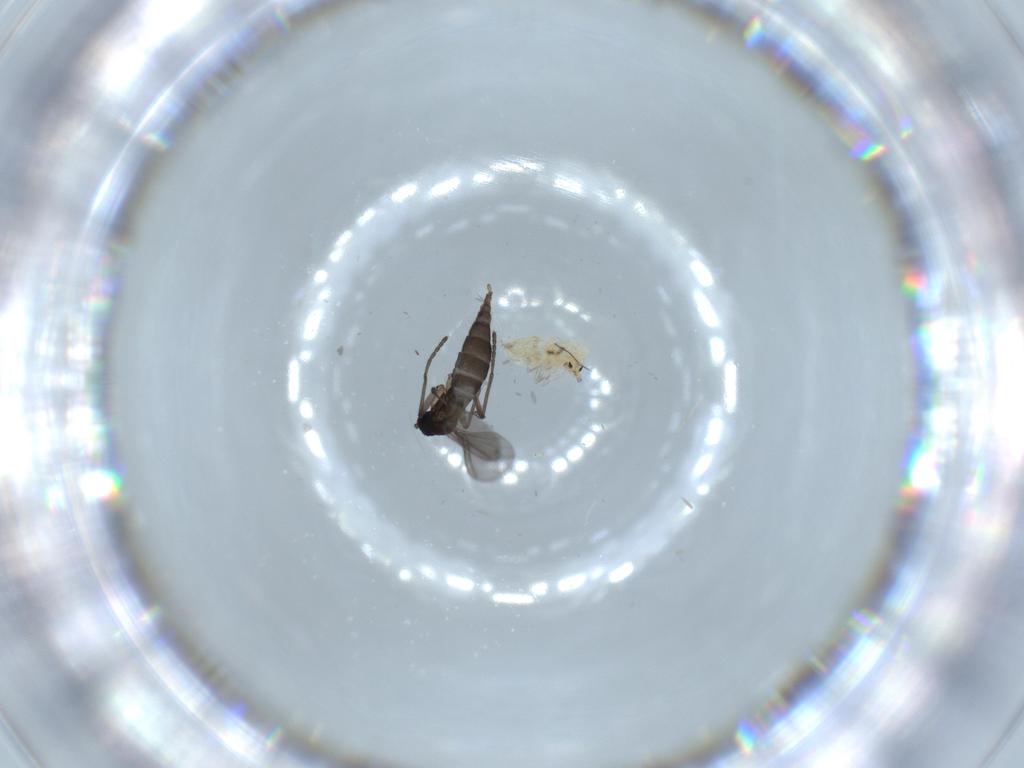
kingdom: Animalia
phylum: Arthropoda
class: Insecta
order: Diptera
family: Sciaridae
